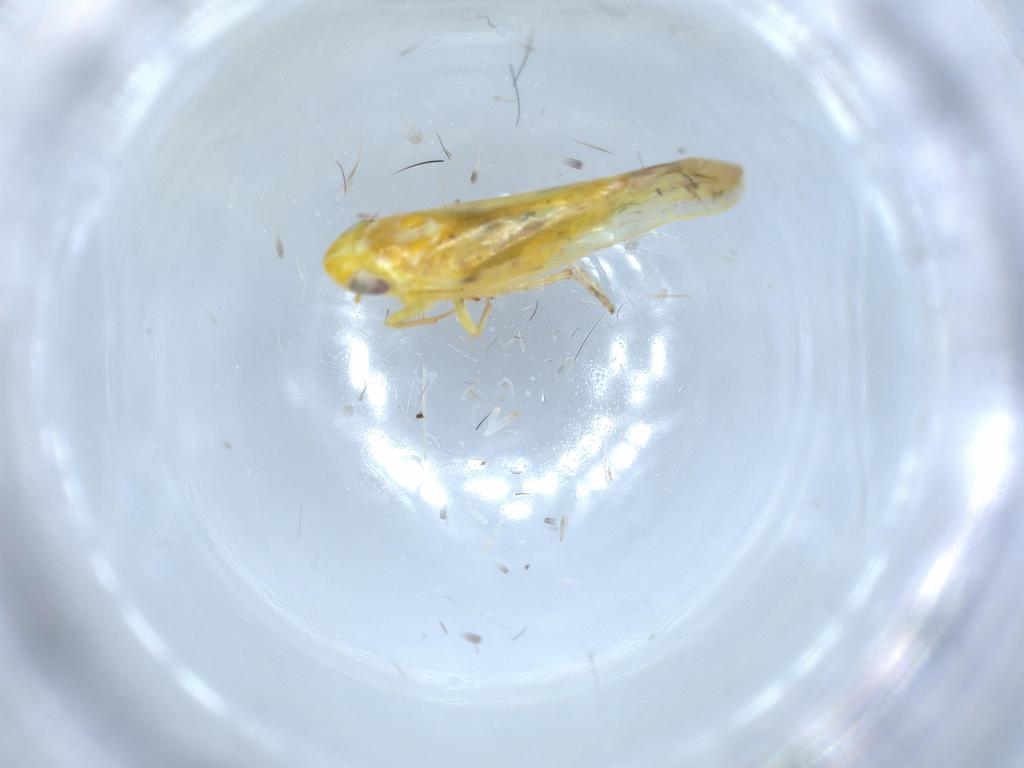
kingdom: Animalia
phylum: Arthropoda
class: Insecta
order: Hemiptera
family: Cicadellidae
